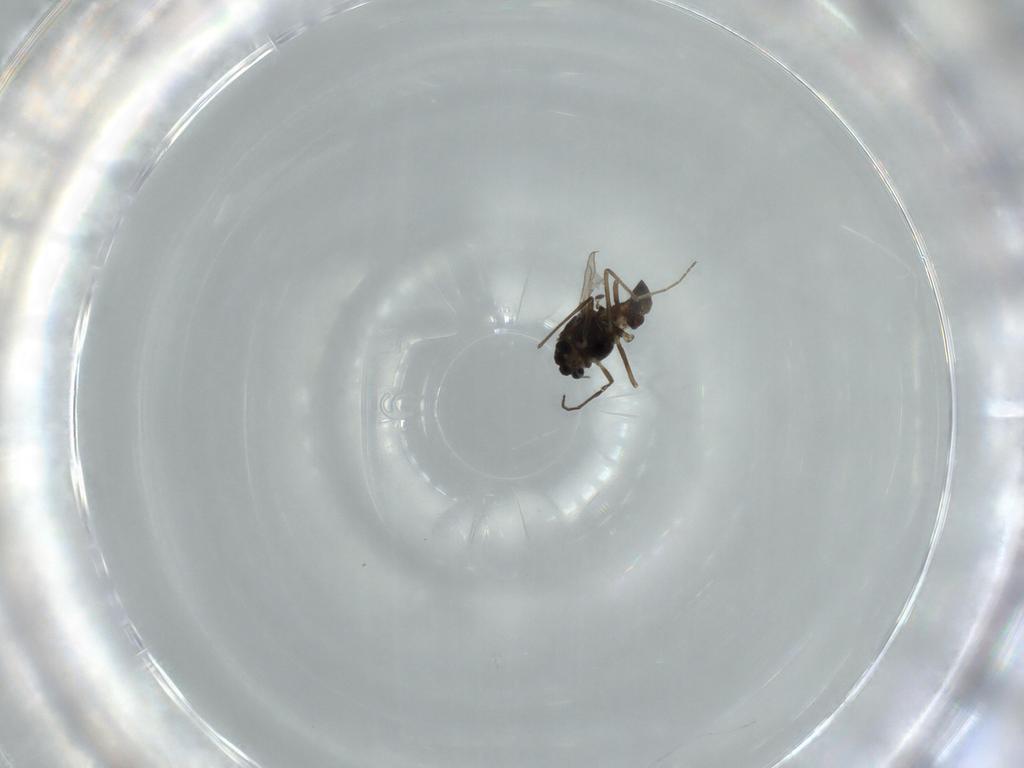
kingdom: Animalia
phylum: Arthropoda
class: Insecta
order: Diptera
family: Chironomidae
